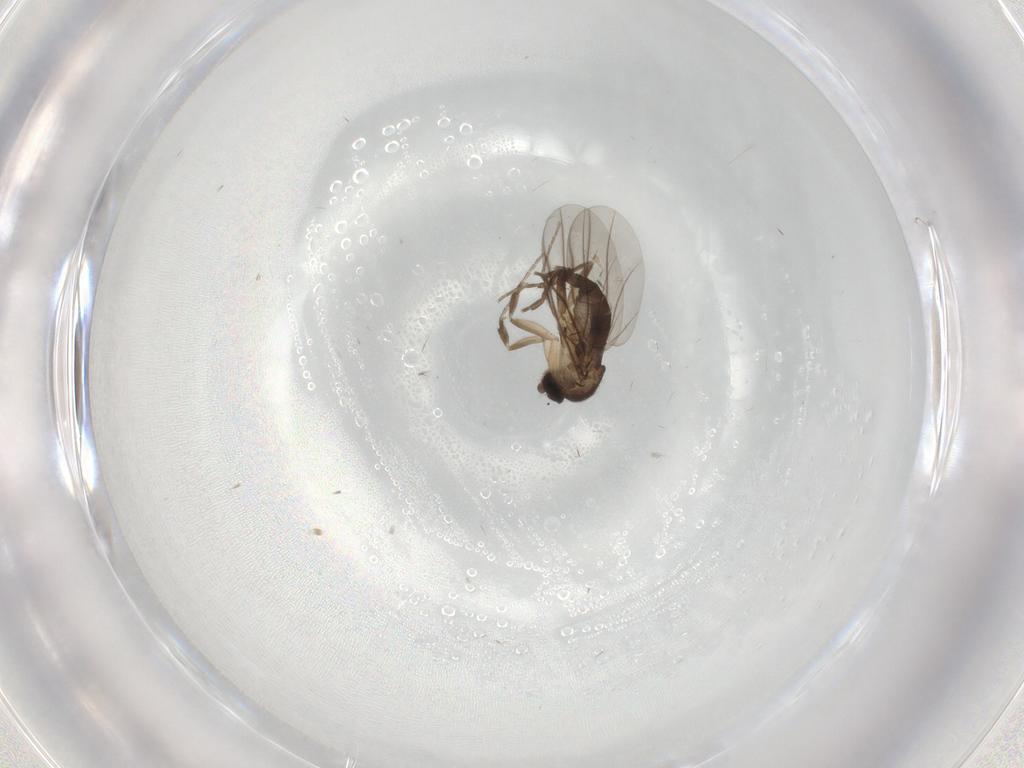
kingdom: Animalia
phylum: Arthropoda
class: Insecta
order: Diptera
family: Phoridae
